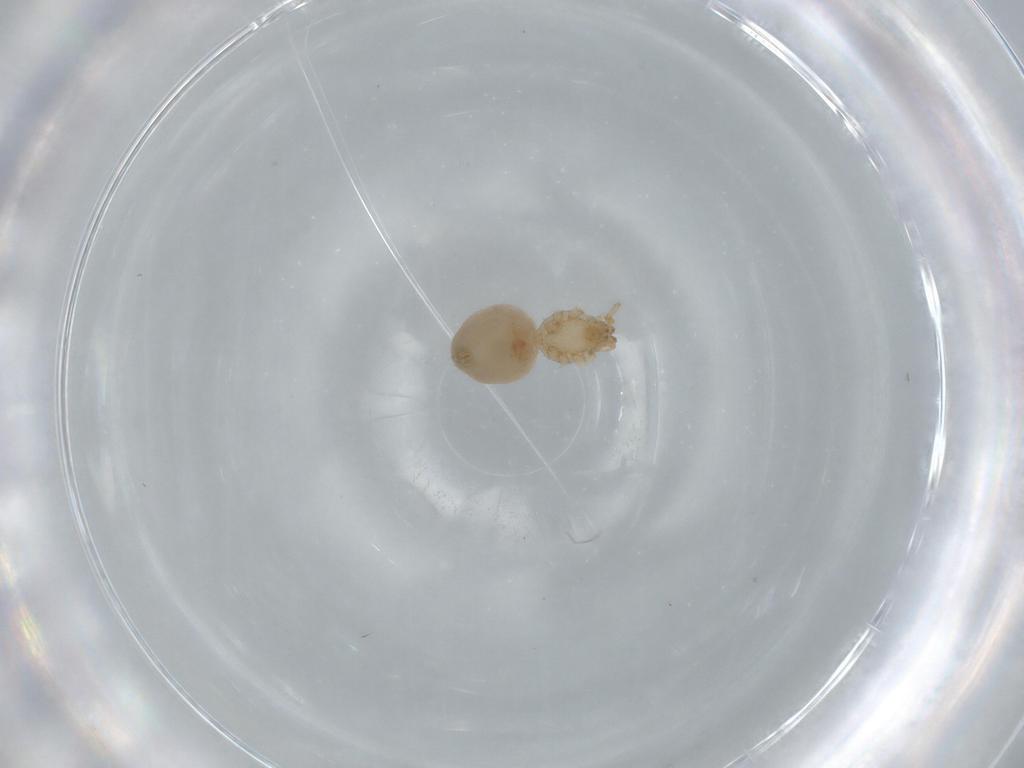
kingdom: Animalia
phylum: Arthropoda
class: Arachnida
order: Araneae
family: Oonopidae
